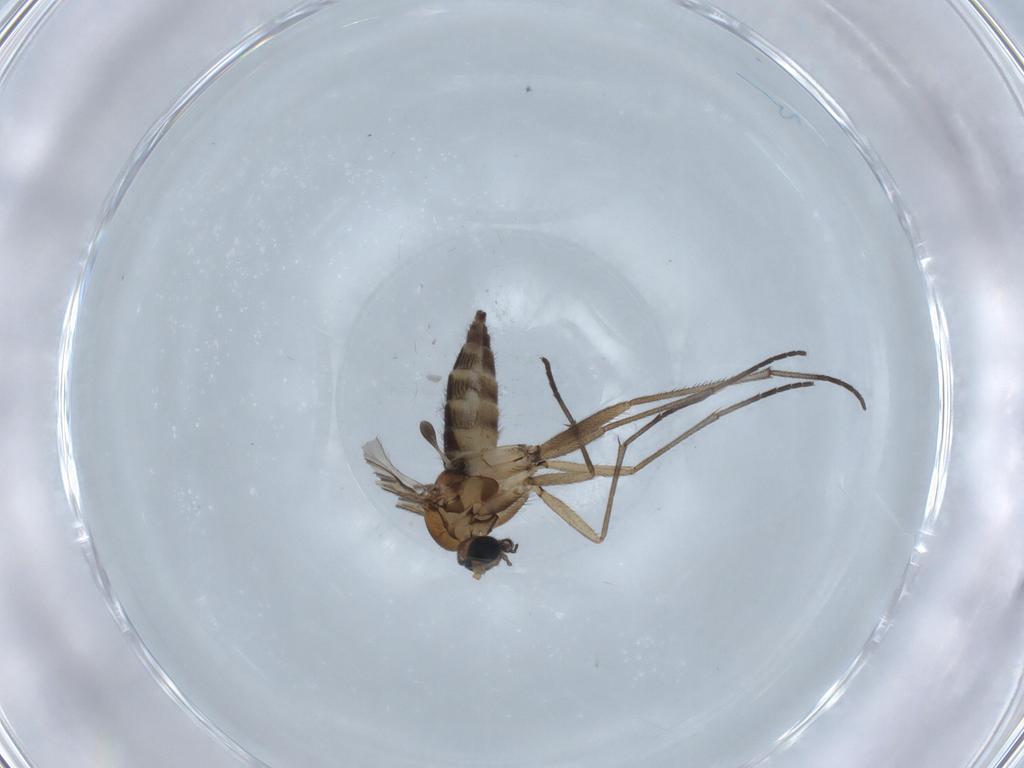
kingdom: Animalia
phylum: Arthropoda
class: Insecta
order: Diptera
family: Sciaridae
